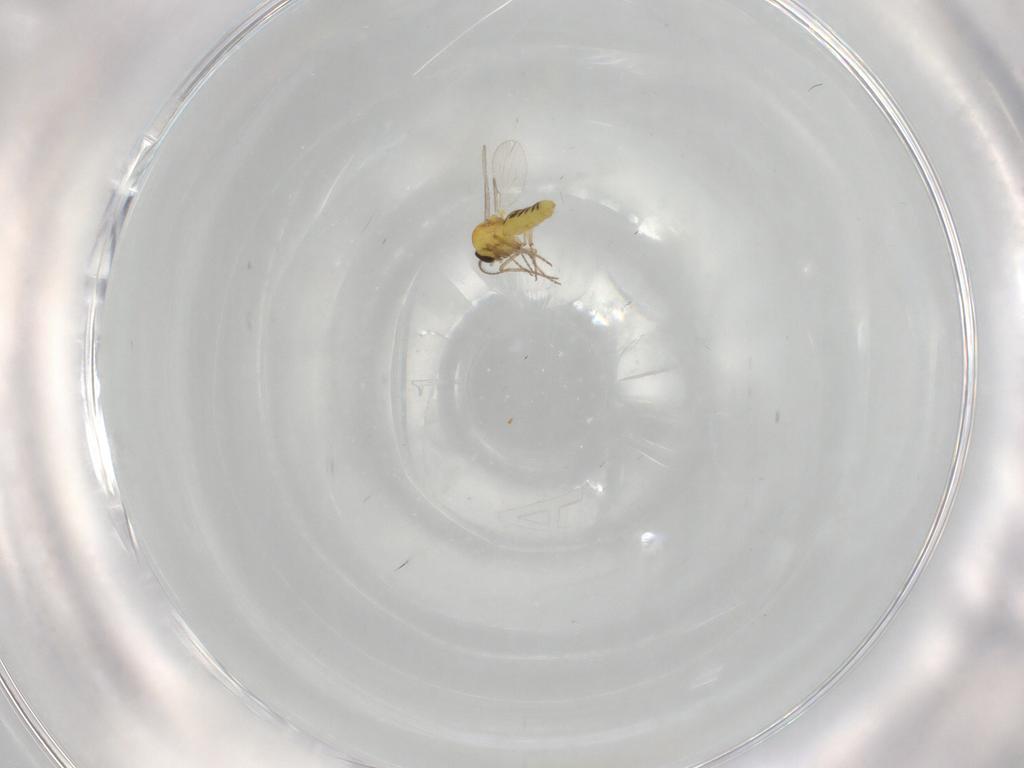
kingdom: Animalia
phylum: Arthropoda
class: Insecta
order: Diptera
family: Ceratopogonidae
